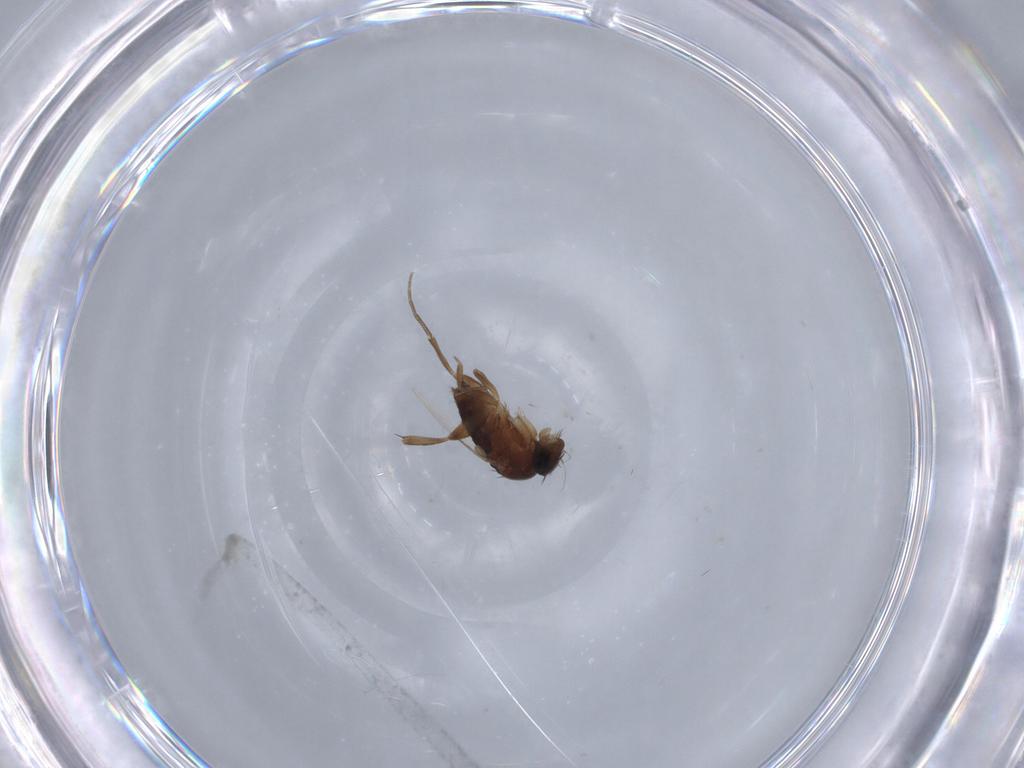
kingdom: Animalia
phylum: Arthropoda
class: Insecta
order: Diptera
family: Phoridae
